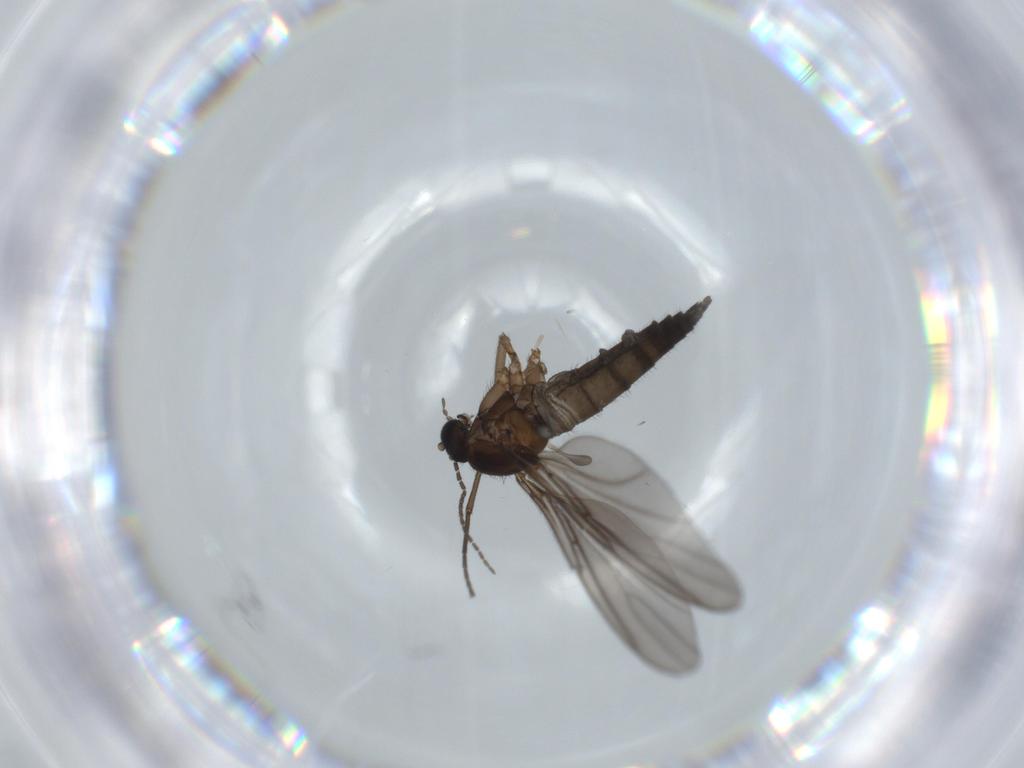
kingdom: Animalia
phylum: Arthropoda
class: Insecta
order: Diptera
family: Sciaridae
